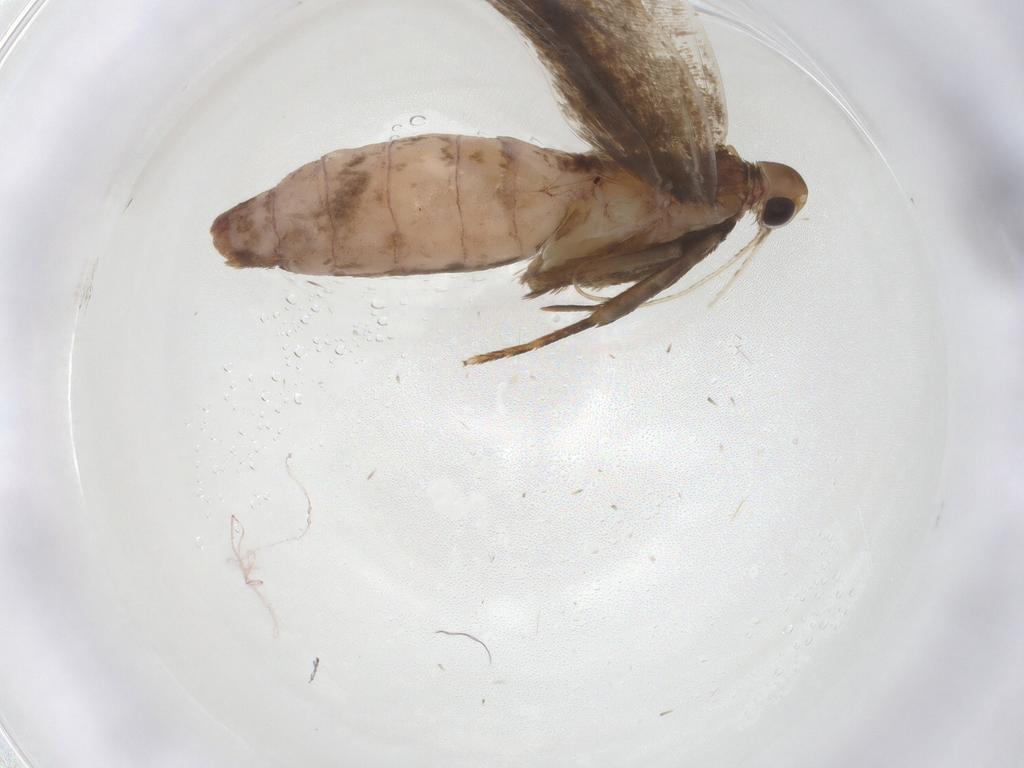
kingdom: Animalia
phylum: Arthropoda
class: Insecta
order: Lepidoptera
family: Gelechiidae
